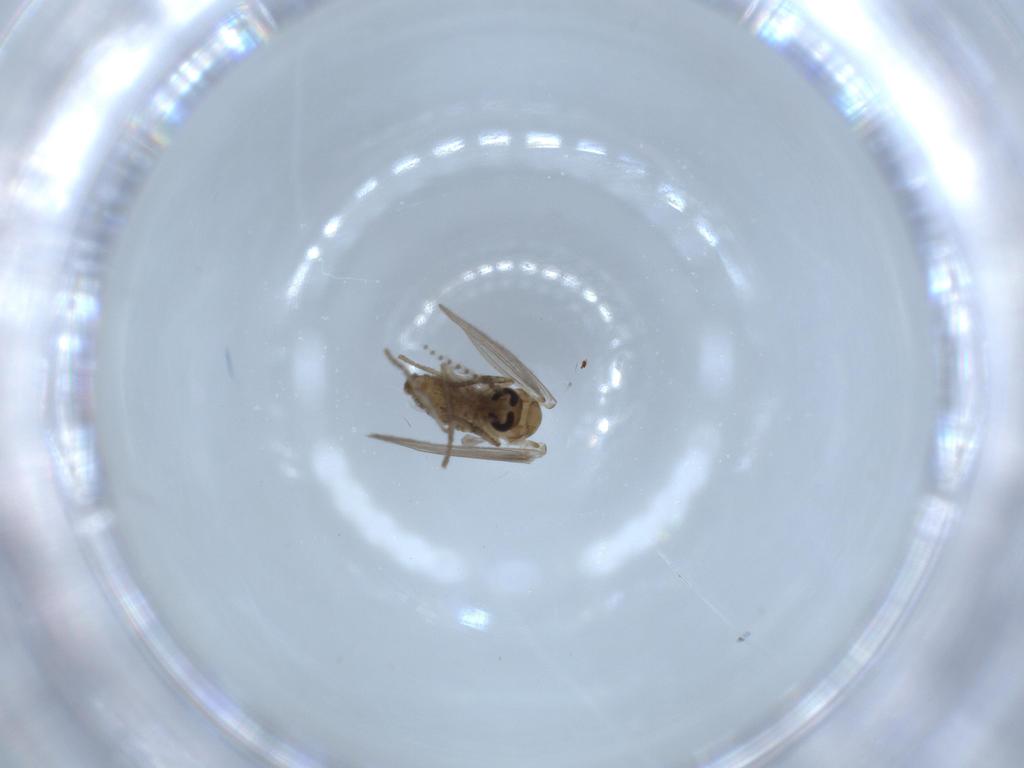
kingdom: Animalia
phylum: Arthropoda
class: Insecta
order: Diptera
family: Psychodidae
